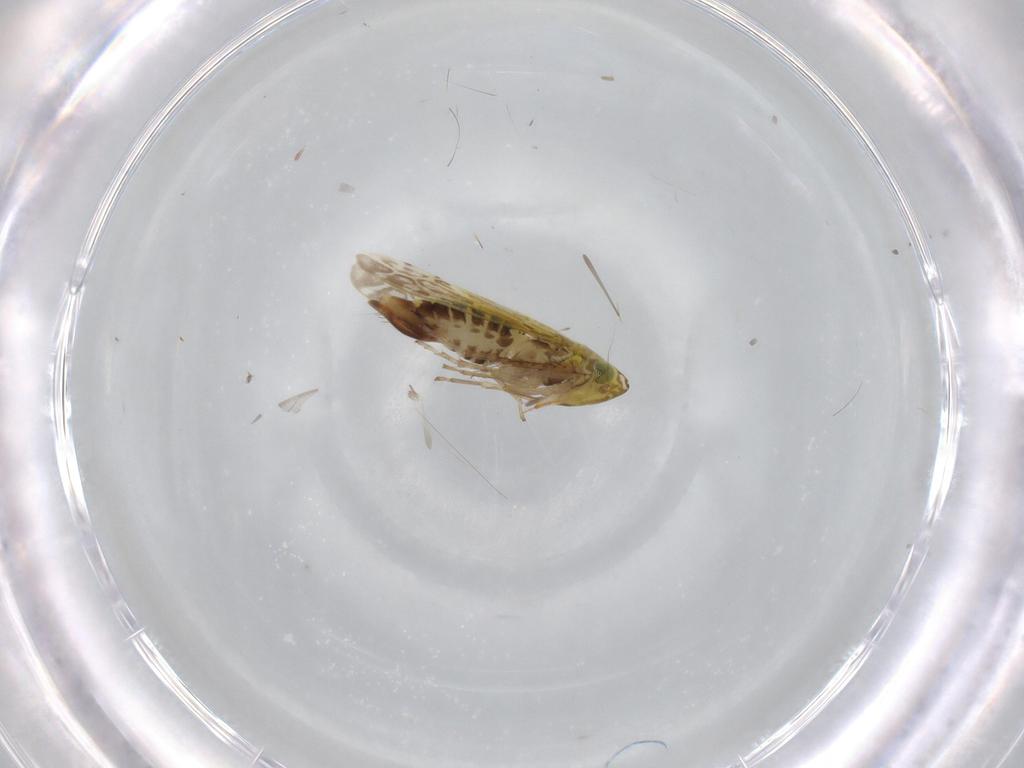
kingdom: Animalia
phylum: Arthropoda
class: Insecta
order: Hemiptera
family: Cicadellidae
